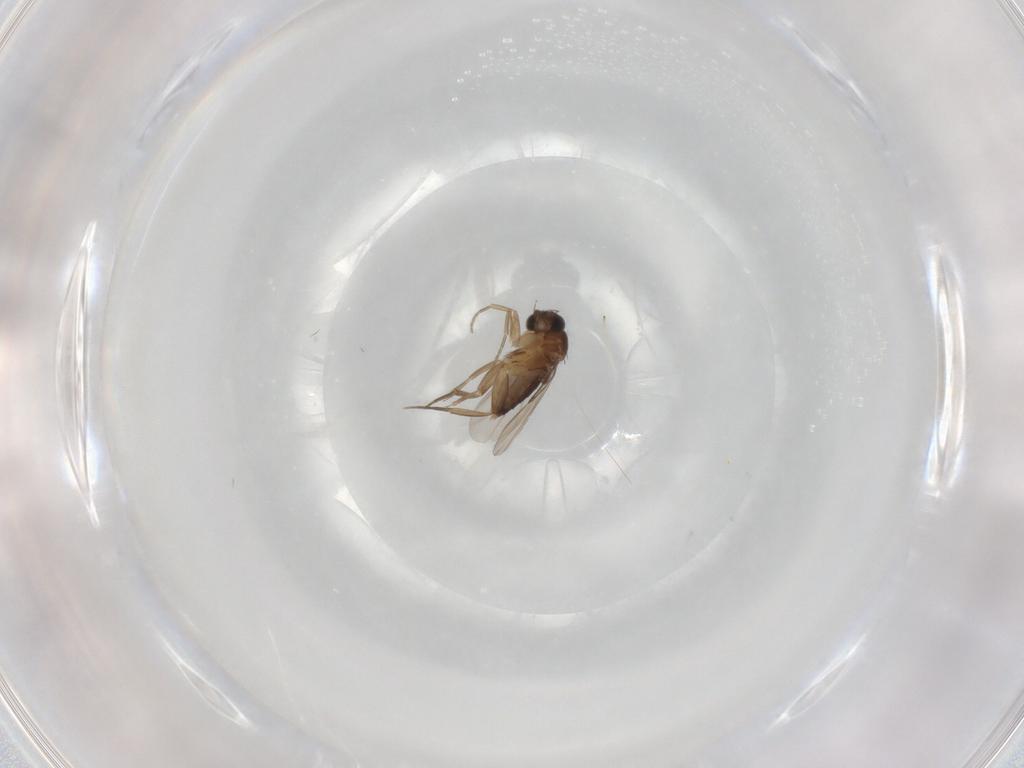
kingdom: Animalia
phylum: Arthropoda
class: Insecta
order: Diptera
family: Phoridae
